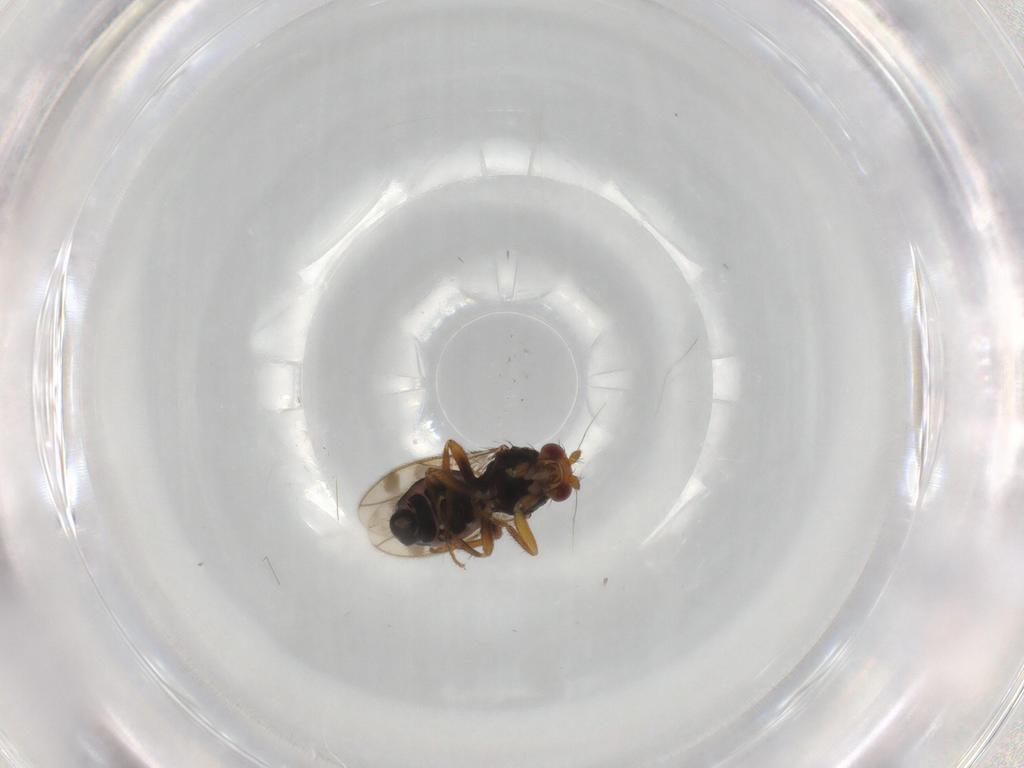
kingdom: Animalia
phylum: Arthropoda
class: Insecta
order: Diptera
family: Sphaeroceridae
